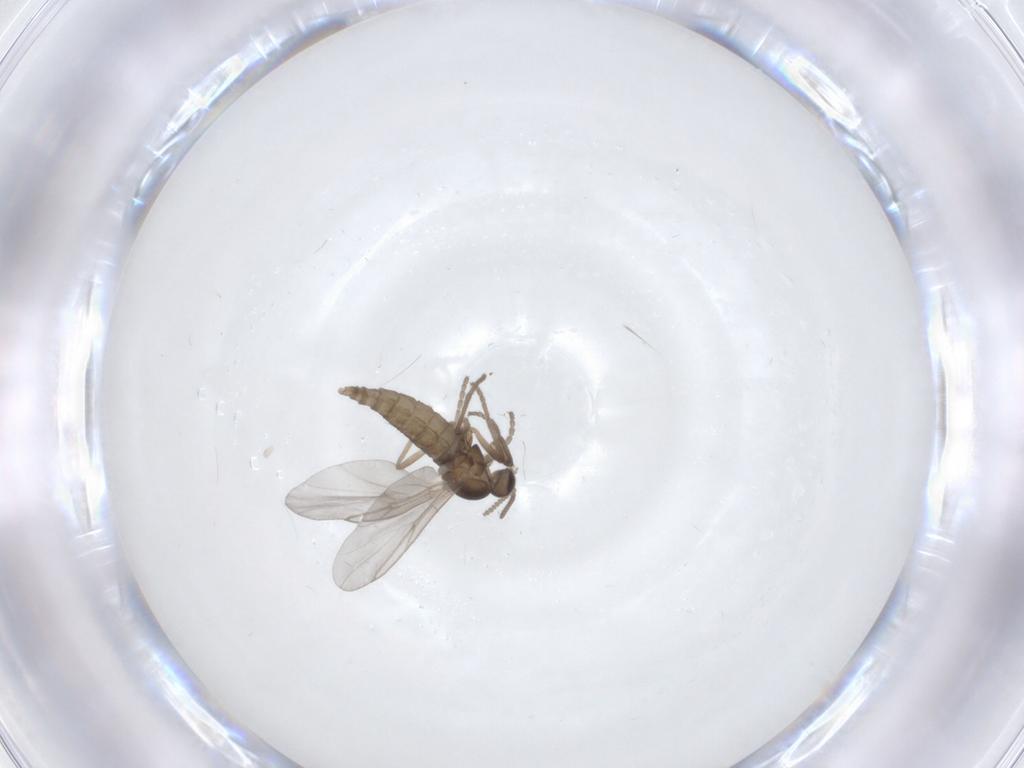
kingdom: Animalia
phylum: Arthropoda
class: Insecta
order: Diptera
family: Cecidomyiidae
